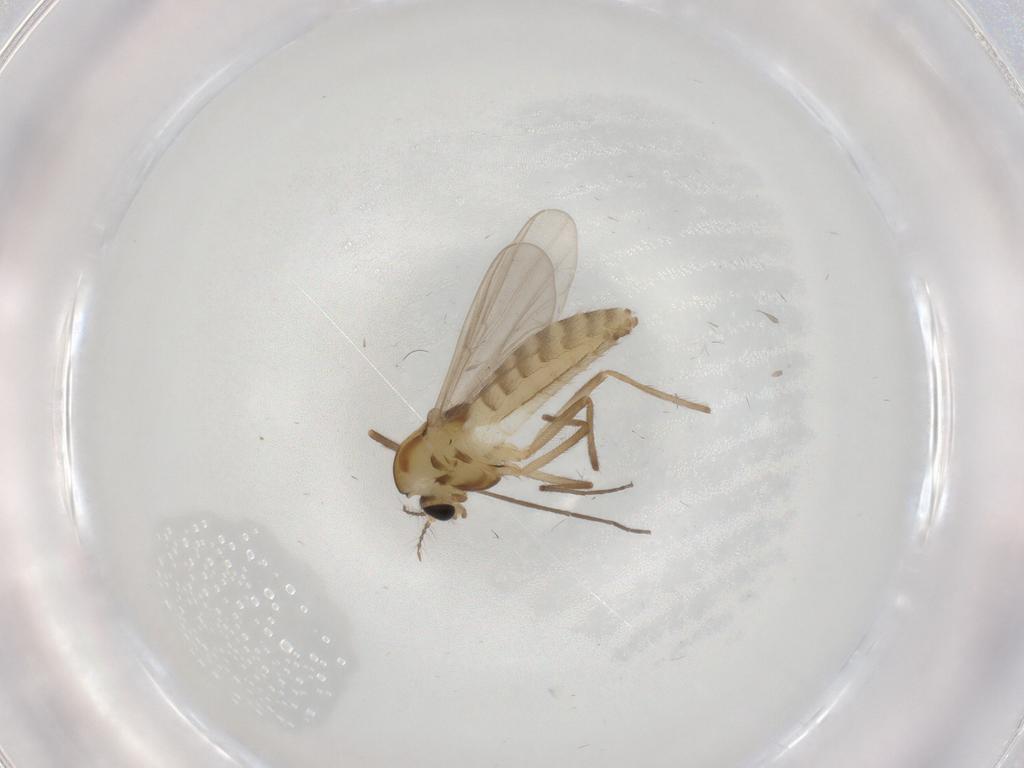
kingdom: Animalia
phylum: Arthropoda
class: Insecta
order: Diptera
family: Chironomidae
